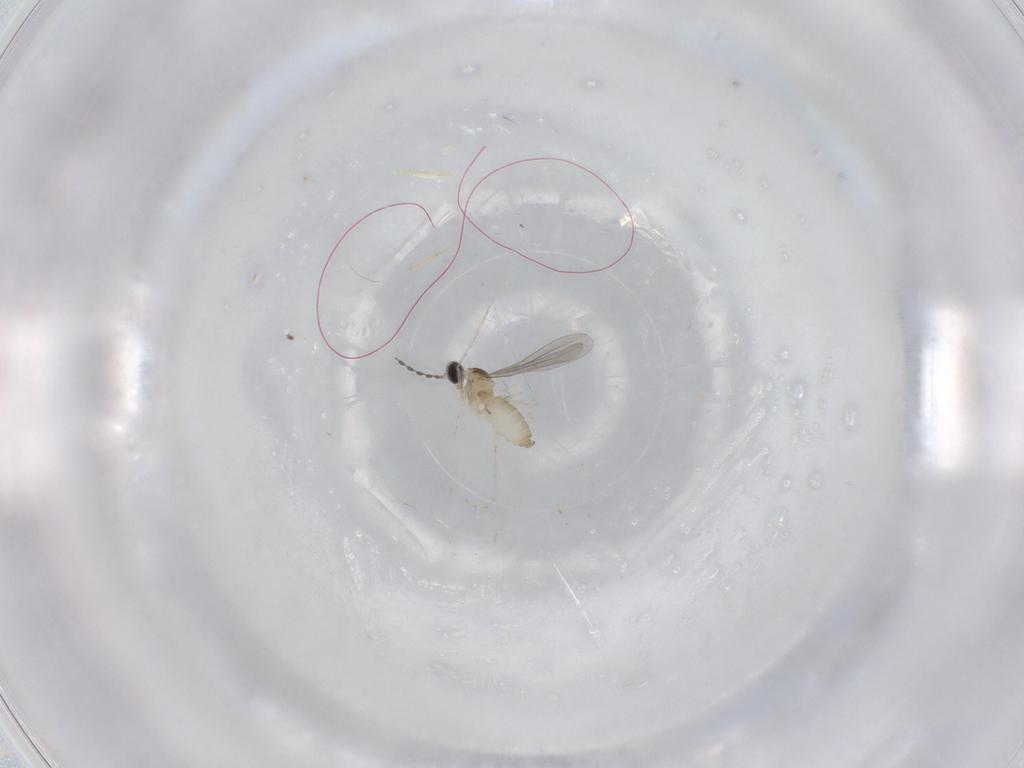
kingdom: Animalia
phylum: Arthropoda
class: Insecta
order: Diptera
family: Cecidomyiidae
